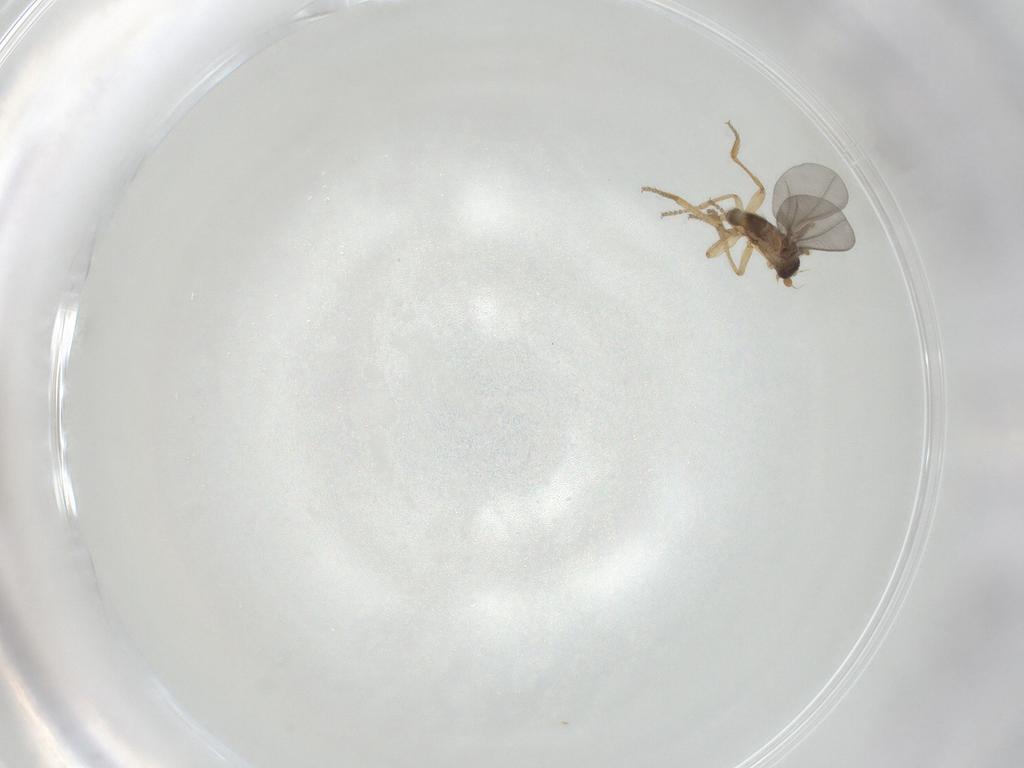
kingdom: Animalia
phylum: Arthropoda
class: Insecta
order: Diptera
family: Phoridae
